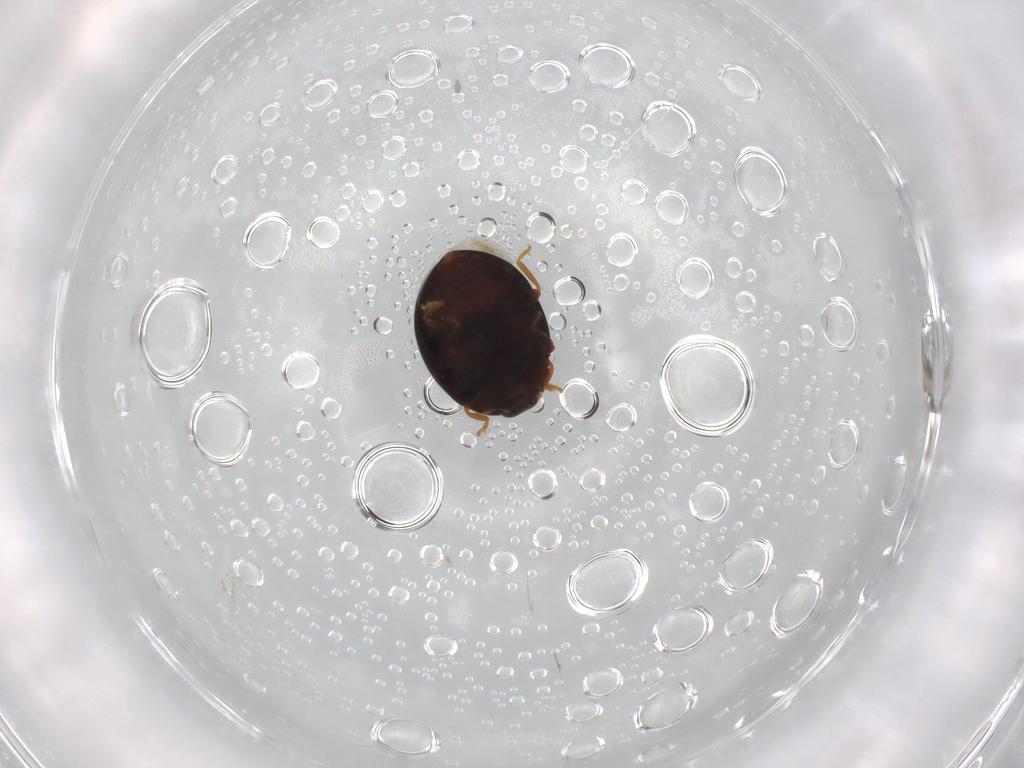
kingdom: Animalia
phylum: Arthropoda
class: Insecta
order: Coleoptera
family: Coccinellidae
